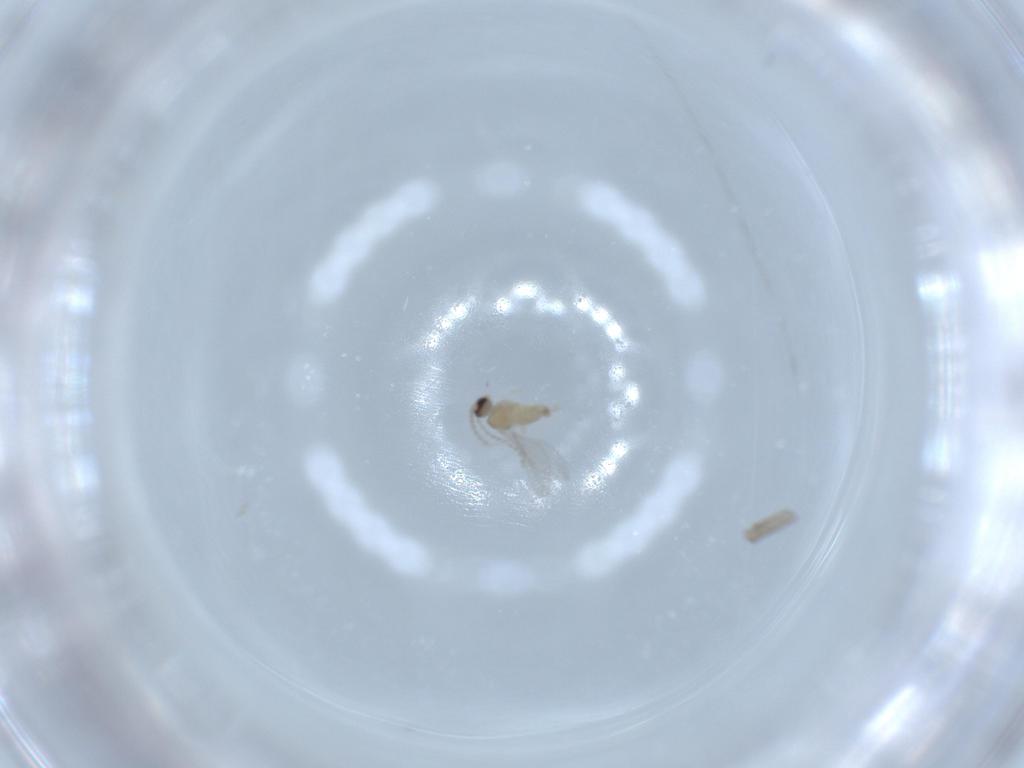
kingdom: Animalia
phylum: Arthropoda
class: Insecta
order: Diptera
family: Cecidomyiidae
